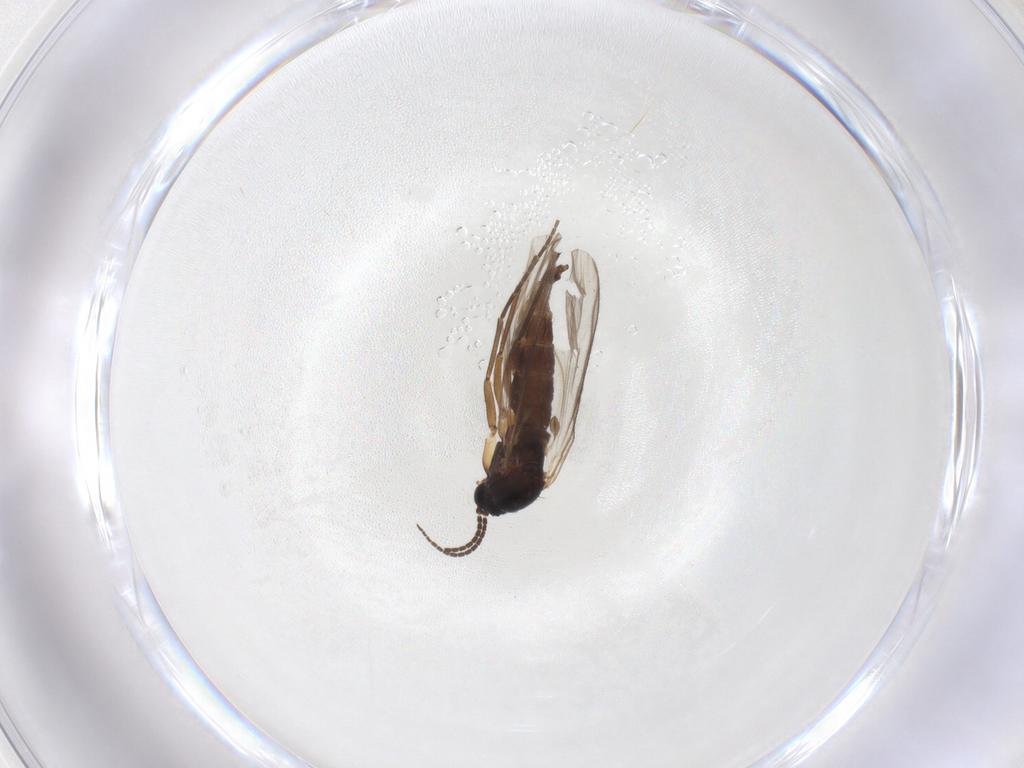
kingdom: Animalia
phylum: Arthropoda
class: Insecta
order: Diptera
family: Sciaridae
